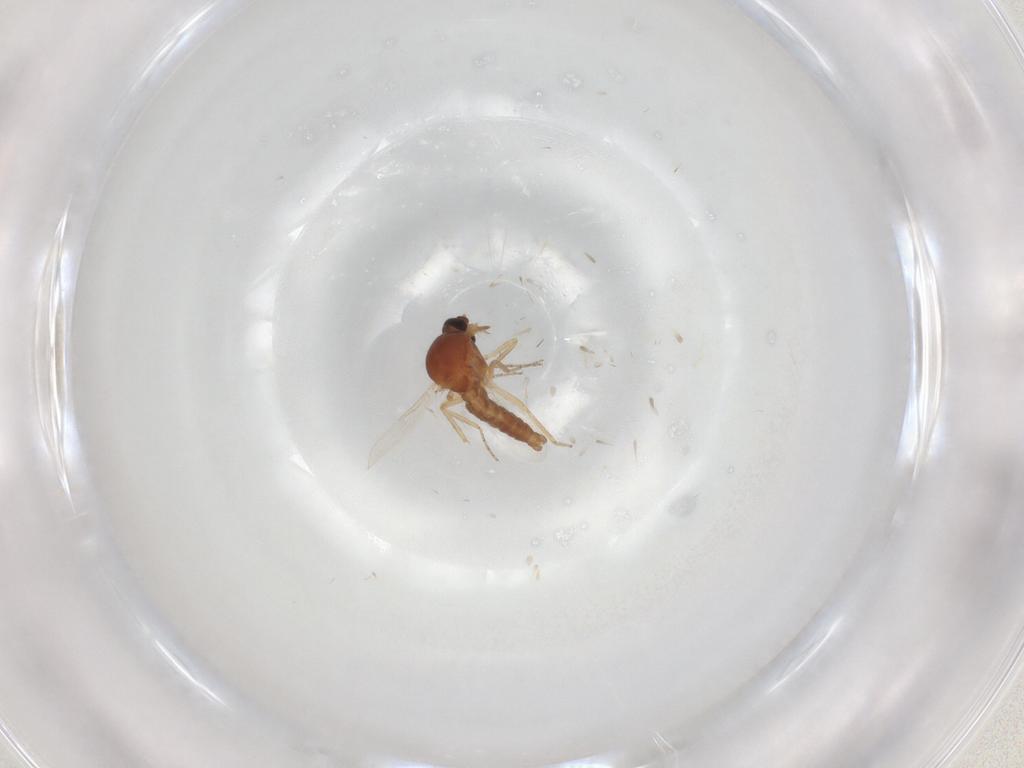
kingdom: Animalia
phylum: Arthropoda
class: Insecta
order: Diptera
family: Ceratopogonidae
